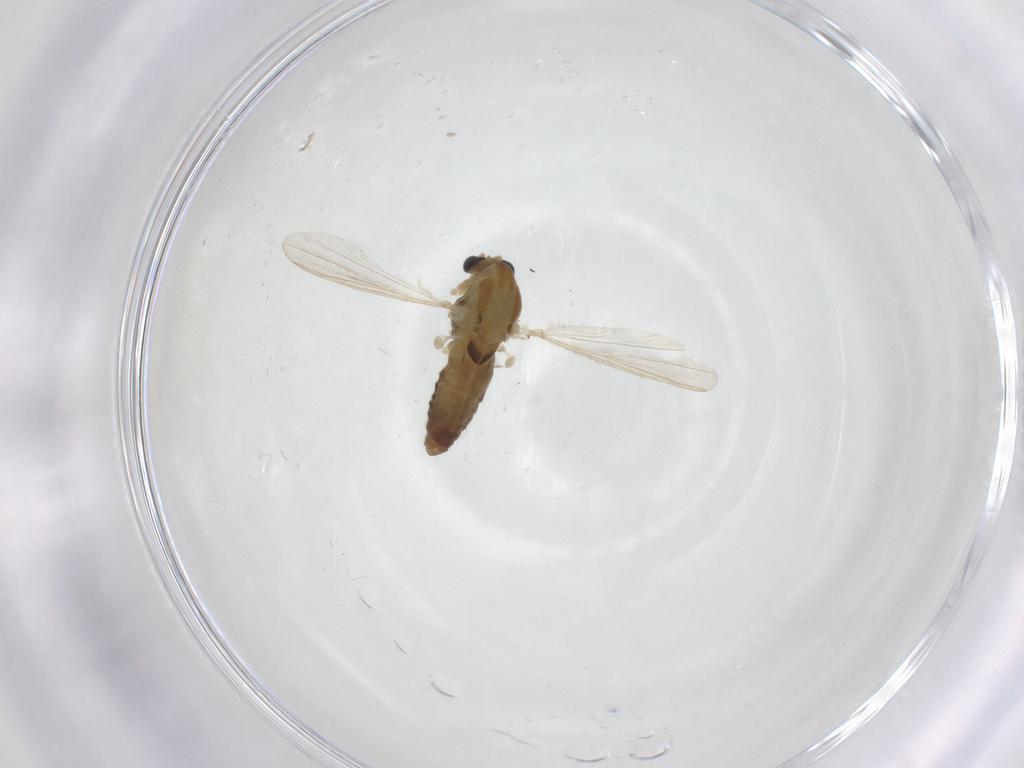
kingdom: Animalia
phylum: Arthropoda
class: Insecta
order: Diptera
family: Chironomidae
